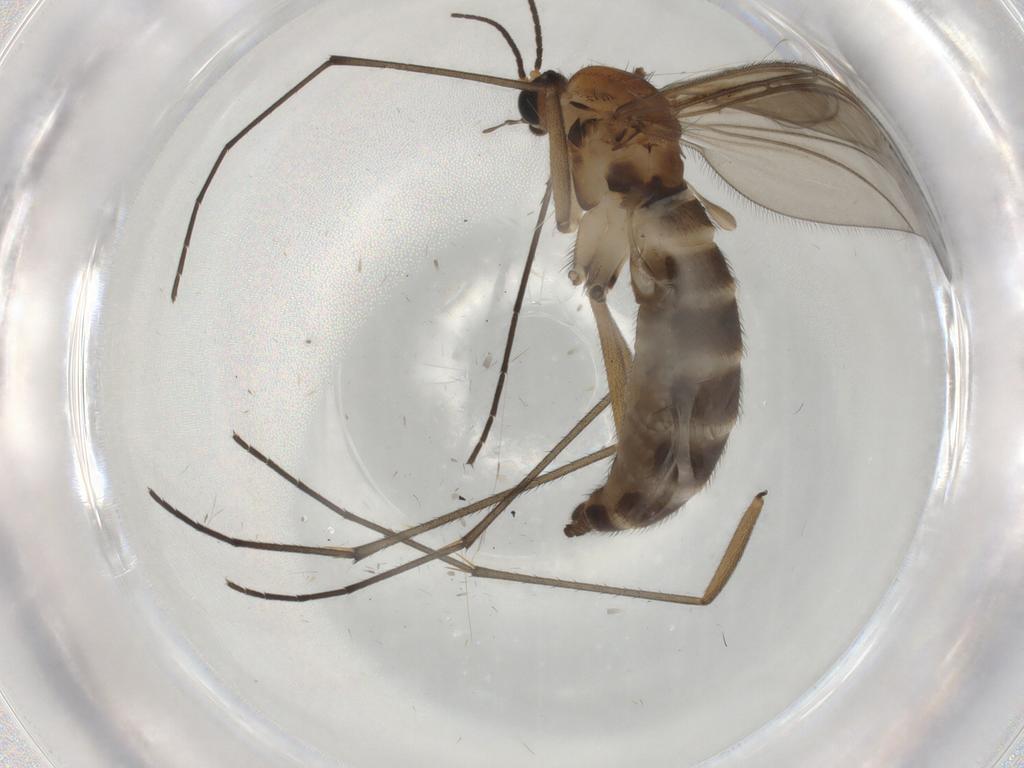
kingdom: Animalia
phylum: Arthropoda
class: Insecta
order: Diptera
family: Sciaridae
